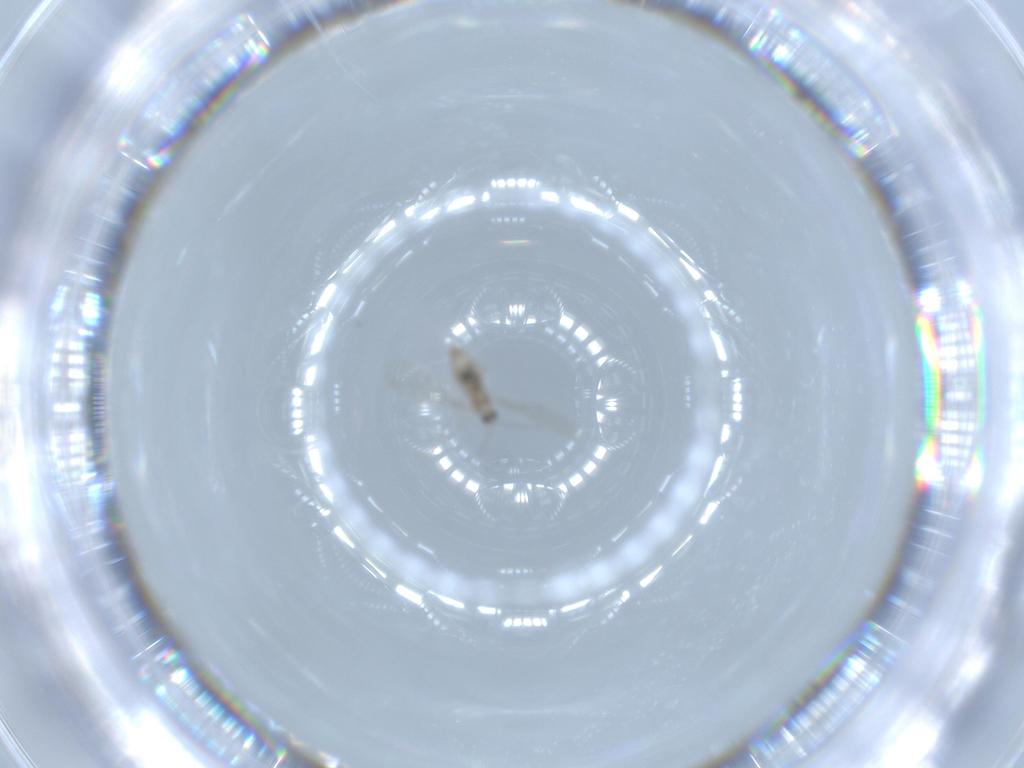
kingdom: Animalia
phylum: Arthropoda
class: Insecta
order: Diptera
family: Cecidomyiidae
